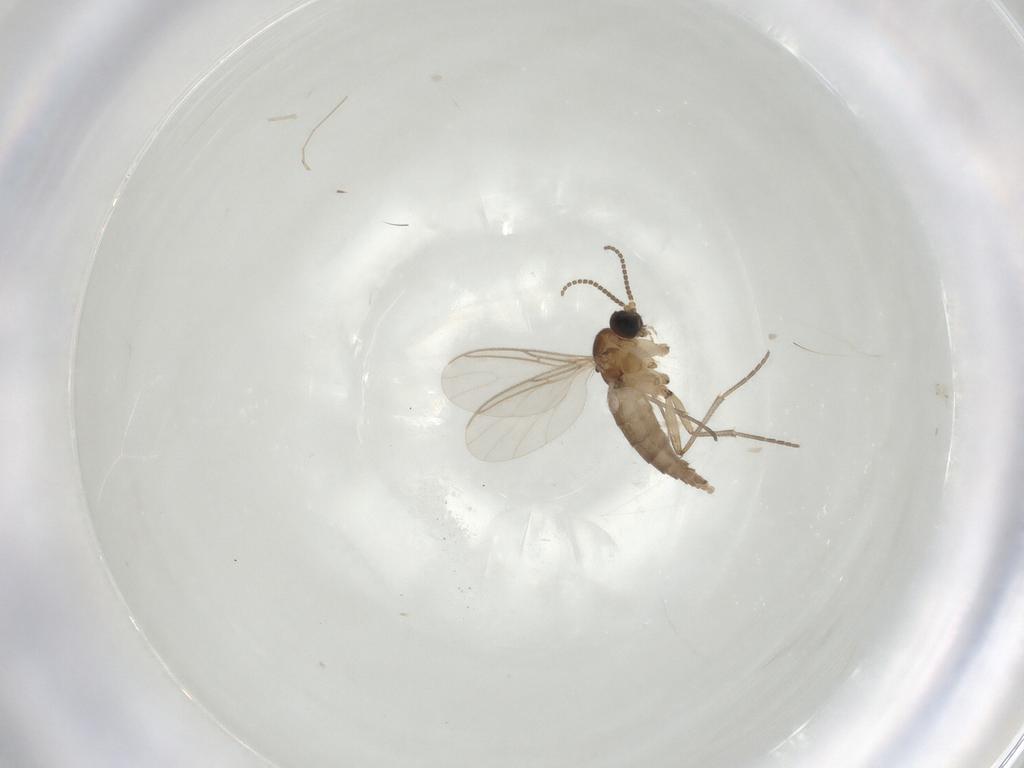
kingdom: Animalia
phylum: Arthropoda
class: Insecta
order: Diptera
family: Sciaridae
